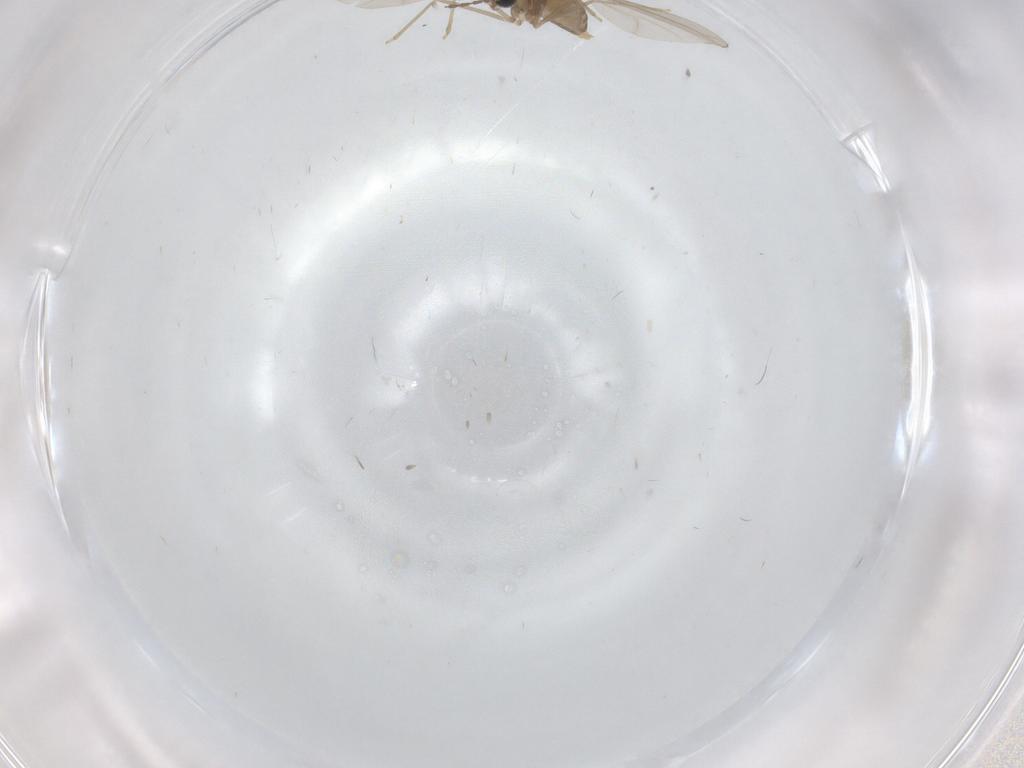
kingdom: Animalia
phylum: Arthropoda
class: Insecta
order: Diptera
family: Cecidomyiidae
